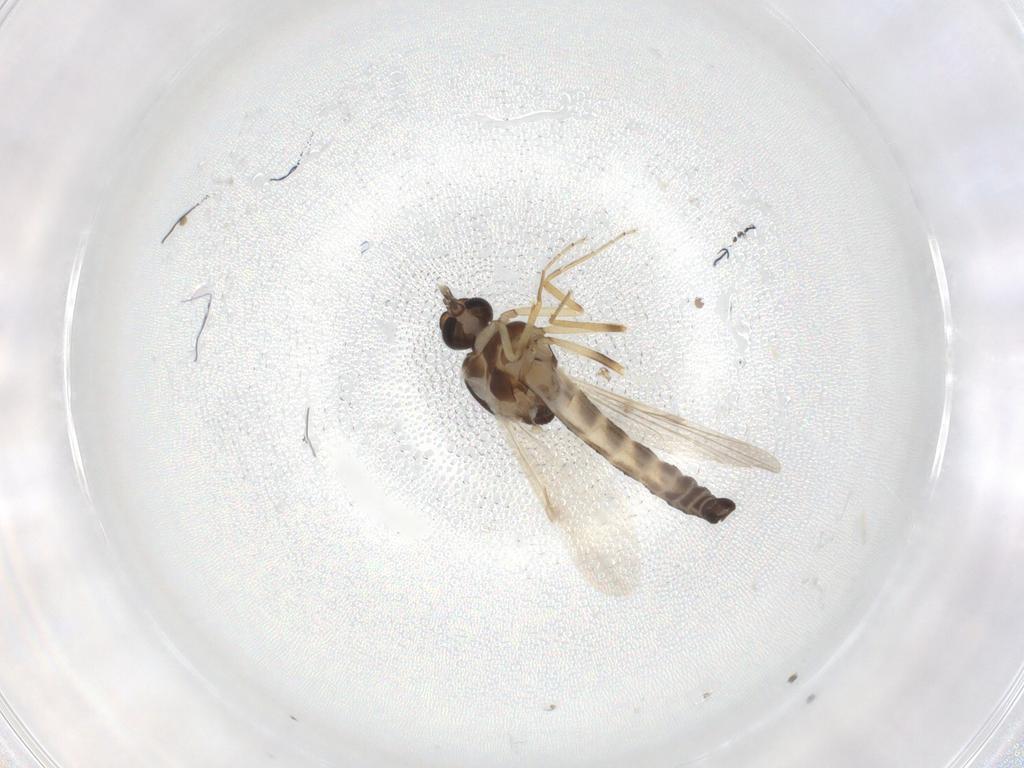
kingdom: Animalia
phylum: Arthropoda
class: Insecta
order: Diptera
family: Ceratopogonidae
